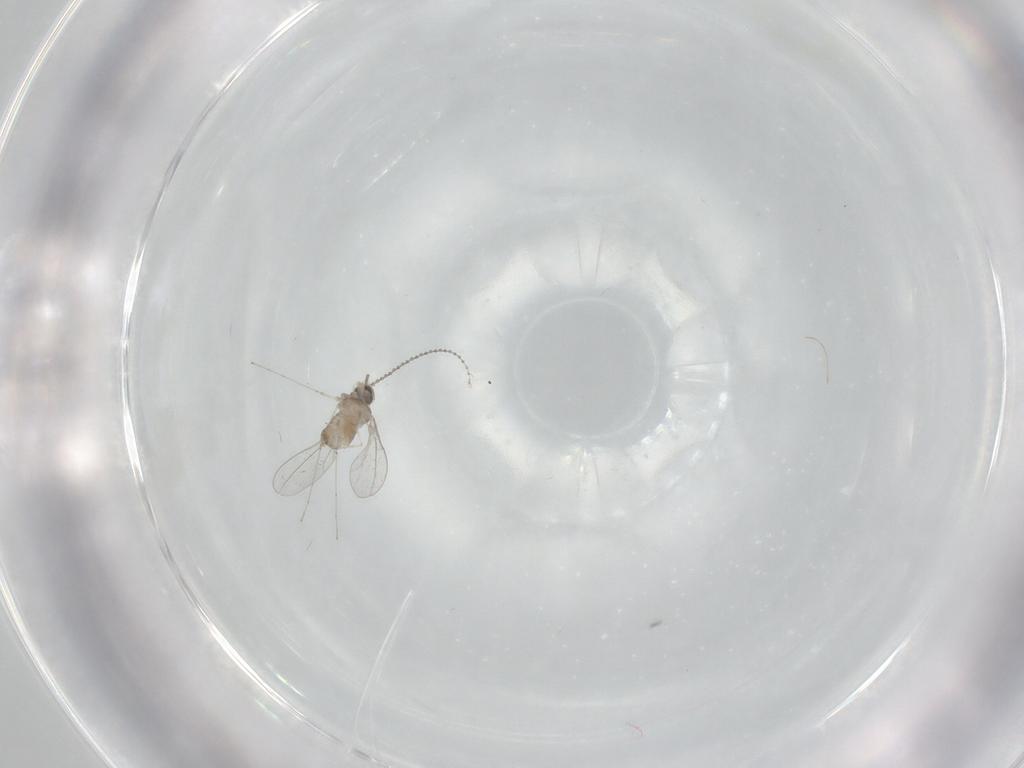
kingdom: Animalia
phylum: Arthropoda
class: Insecta
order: Diptera
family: Cecidomyiidae
